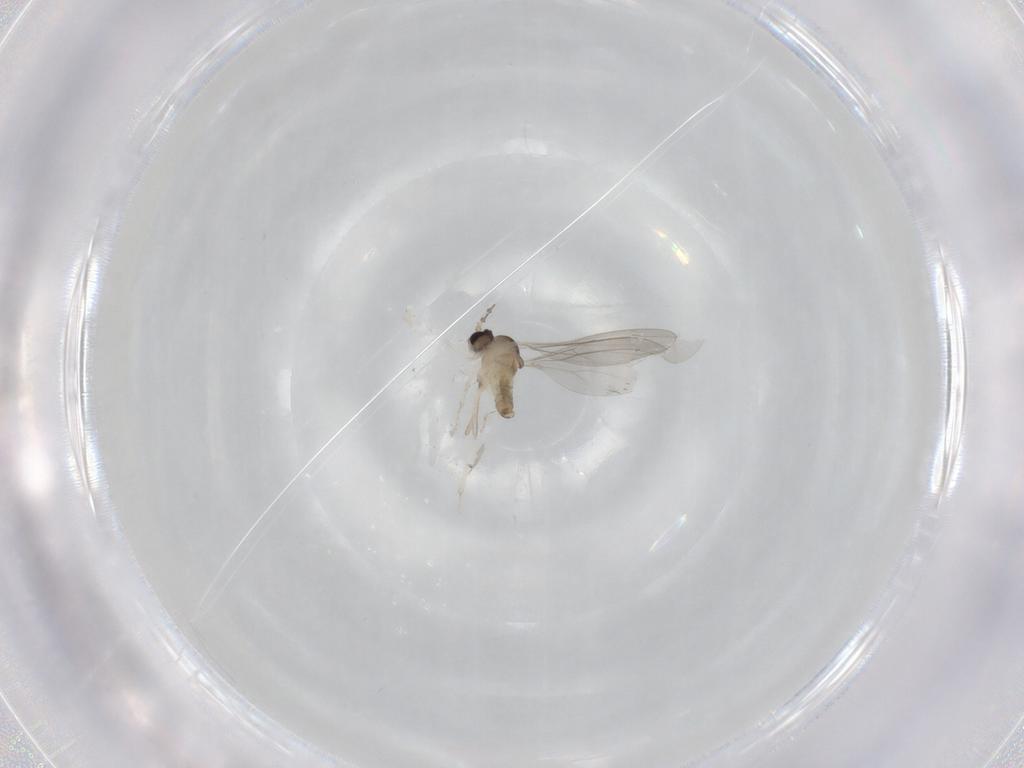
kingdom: Animalia
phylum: Arthropoda
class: Insecta
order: Diptera
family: Cecidomyiidae
